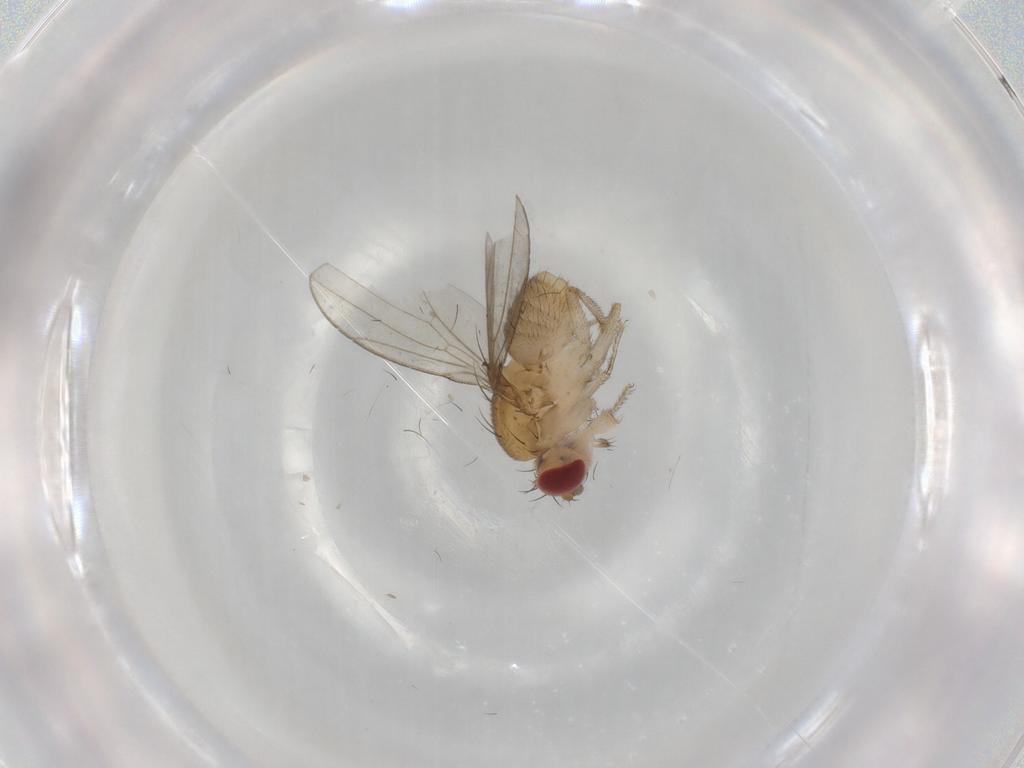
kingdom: Animalia
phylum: Arthropoda
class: Insecta
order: Diptera
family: Drosophilidae
